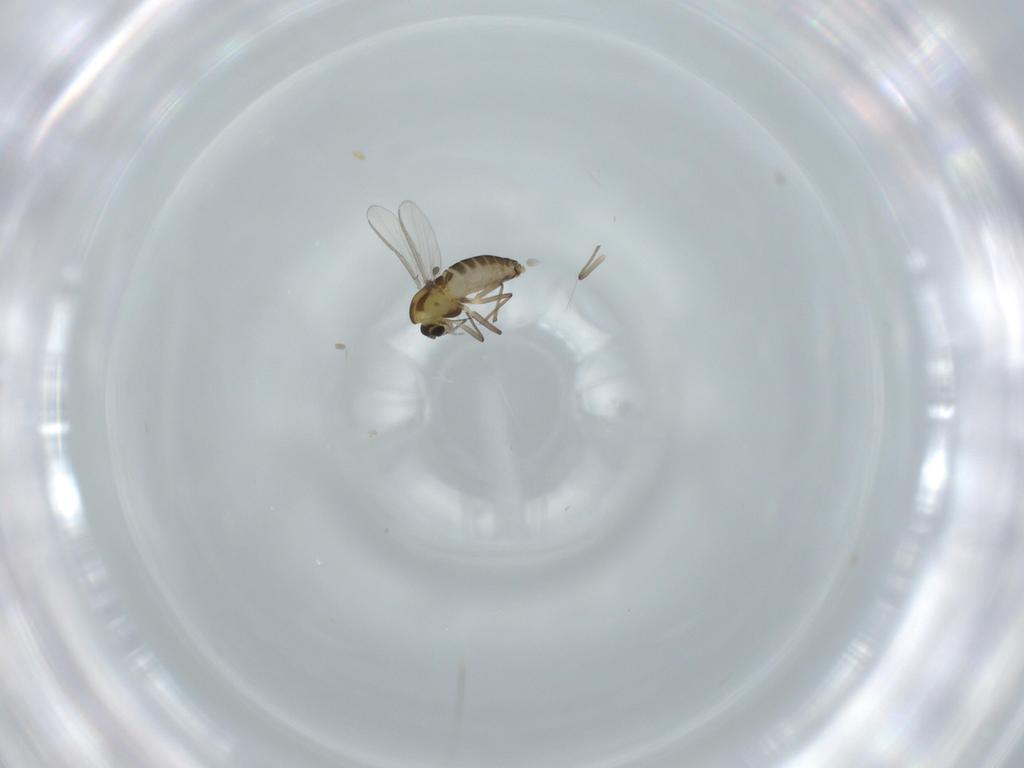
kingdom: Animalia
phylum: Arthropoda
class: Insecta
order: Diptera
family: Chironomidae
